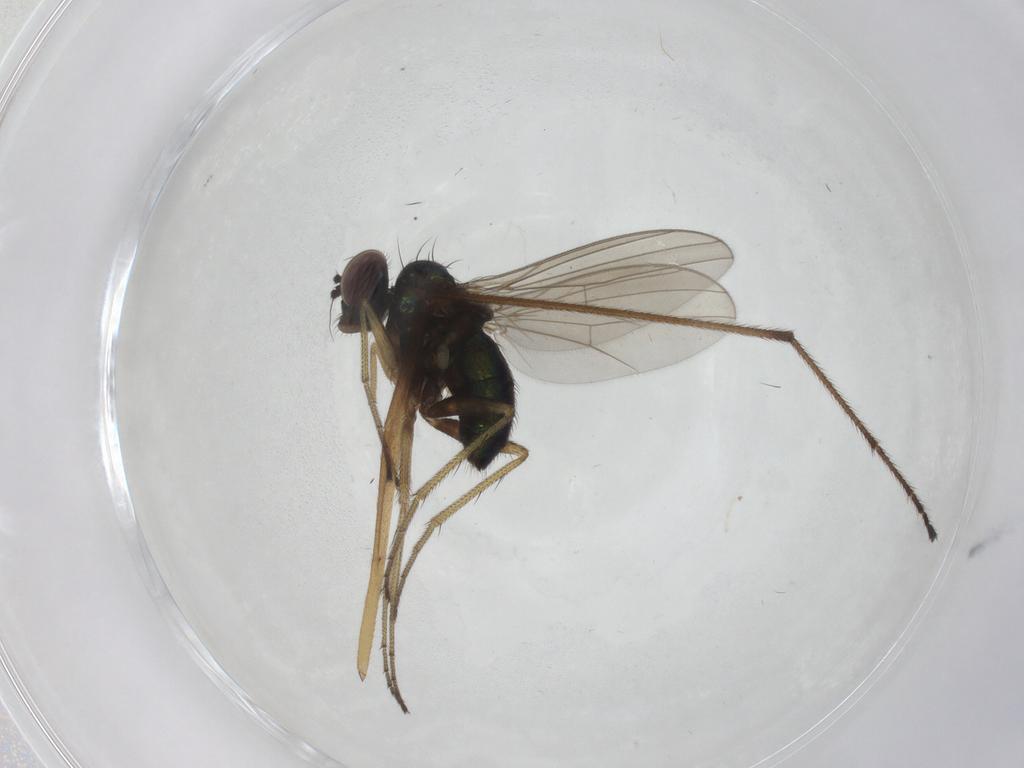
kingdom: Animalia
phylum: Arthropoda
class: Insecta
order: Diptera
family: Dolichopodidae
